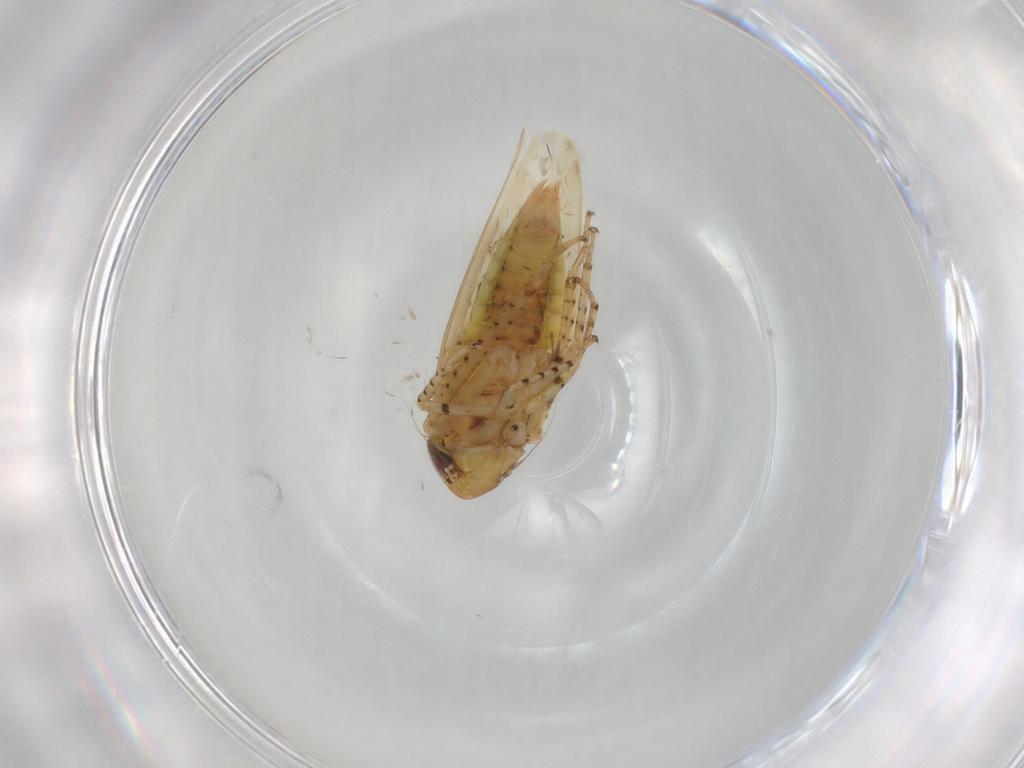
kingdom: Animalia
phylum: Arthropoda
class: Insecta
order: Hemiptera
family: Cicadellidae
